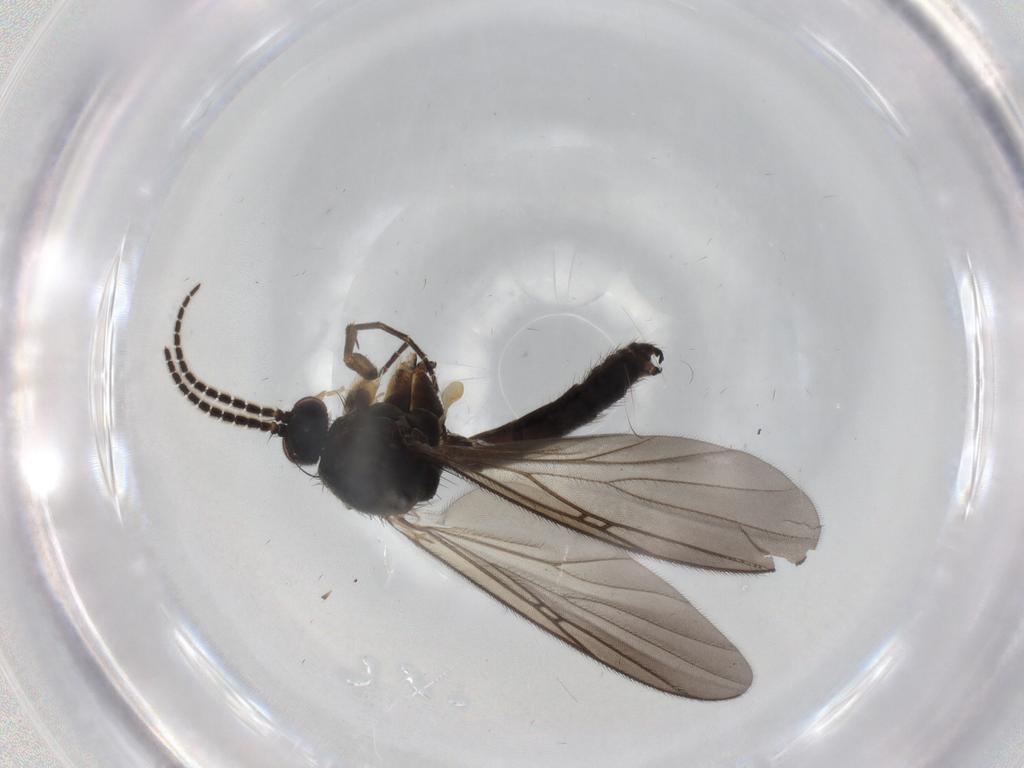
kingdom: Animalia
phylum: Arthropoda
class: Insecta
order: Diptera
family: Mycetophilidae
